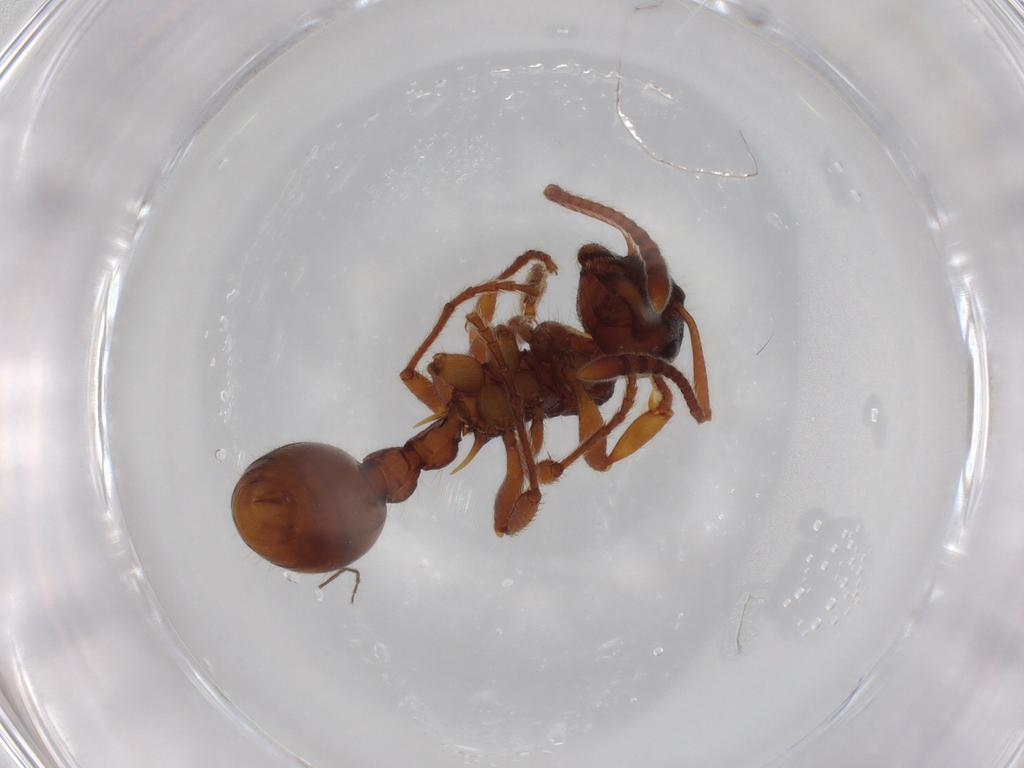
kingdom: Animalia
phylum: Arthropoda
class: Insecta
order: Hymenoptera
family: Formicidae
